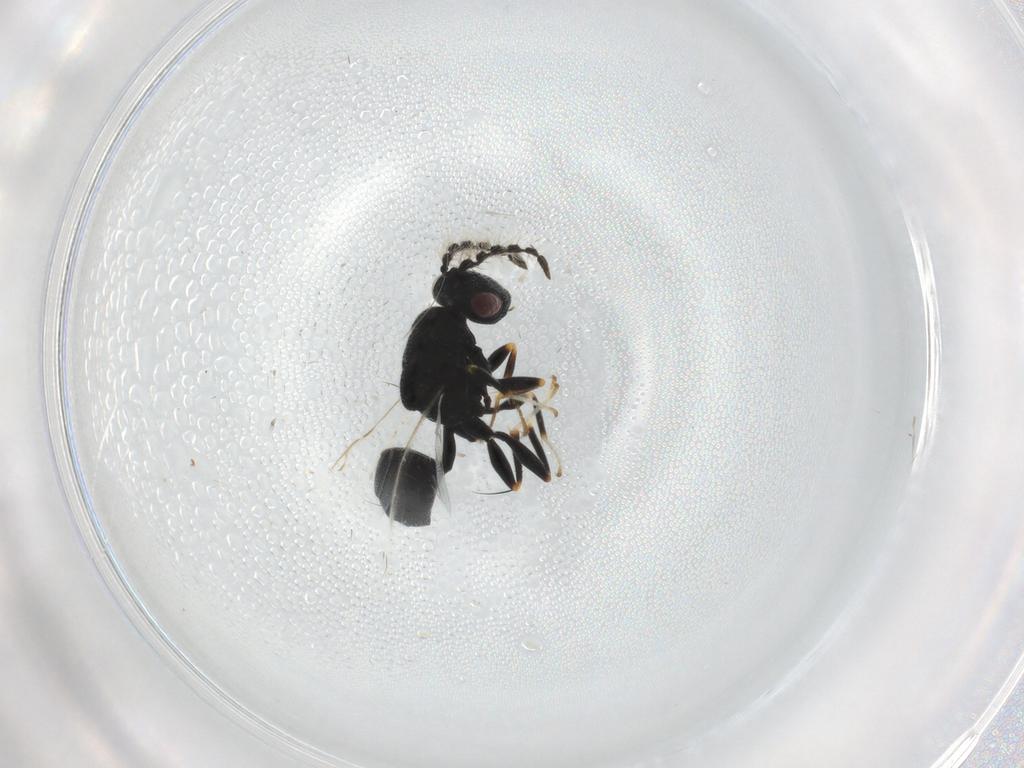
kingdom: Animalia
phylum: Arthropoda
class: Insecta
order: Hymenoptera
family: Eurytomidae
